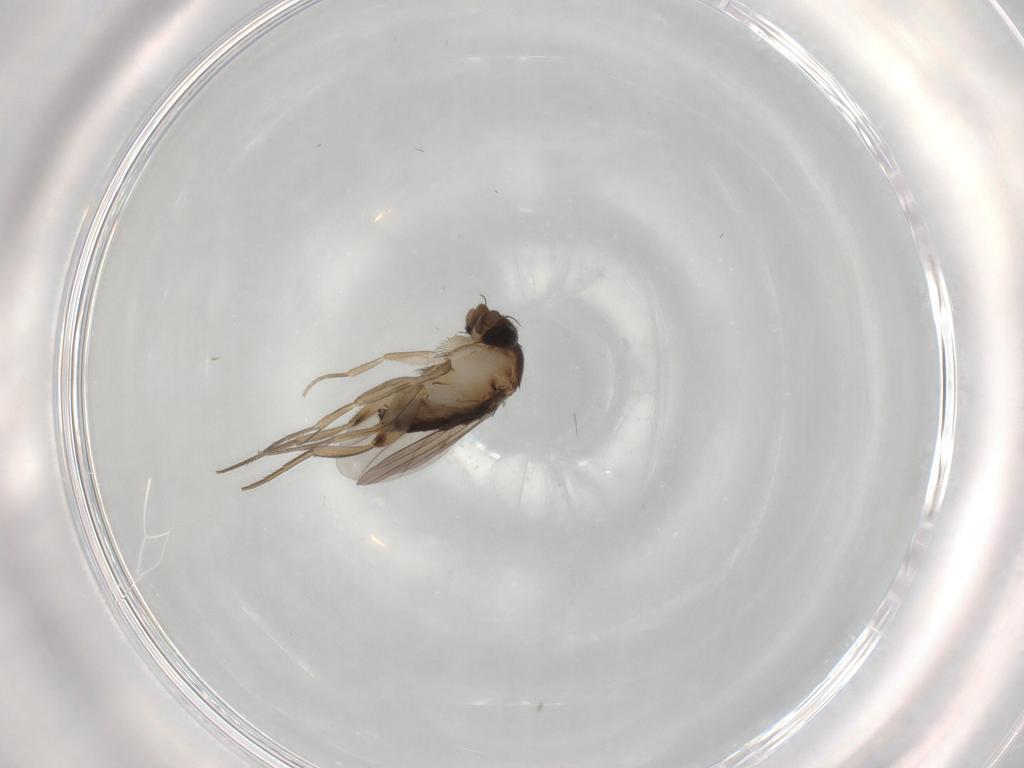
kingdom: Animalia
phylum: Arthropoda
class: Insecta
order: Diptera
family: Phoridae
